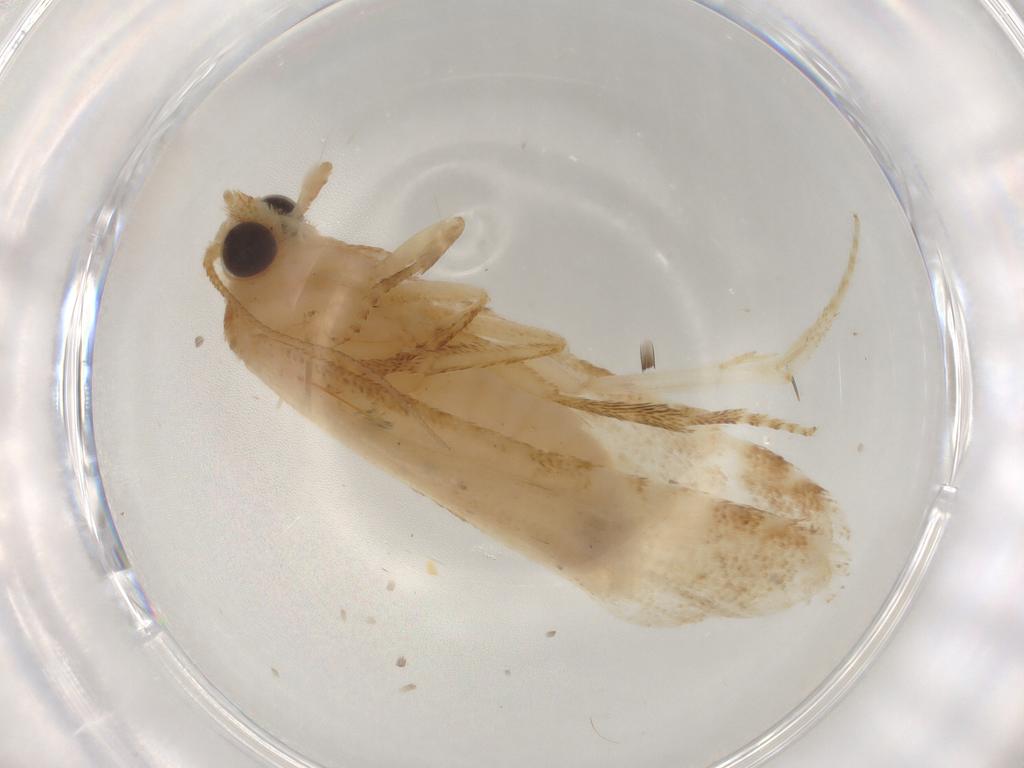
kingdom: Animalia
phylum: Arthropoda
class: Insecta
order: Lepidoptera
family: Tortricidae
